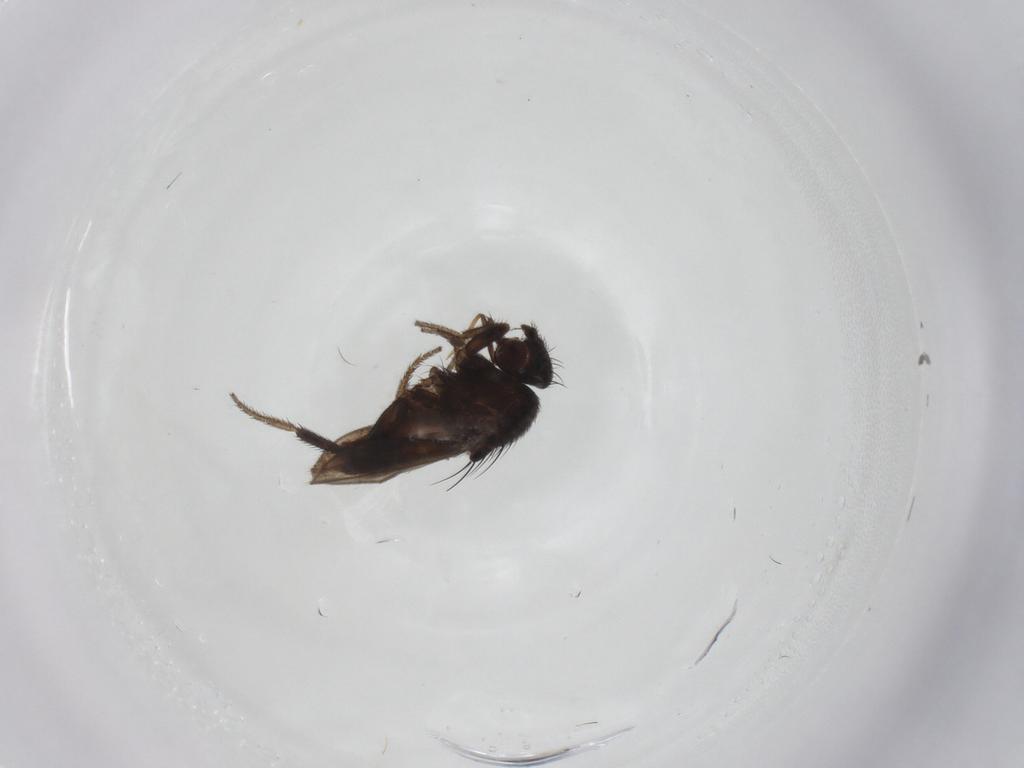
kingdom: Animalia
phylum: Arthropoda
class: Insecta
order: Diptera
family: Milichiidae
